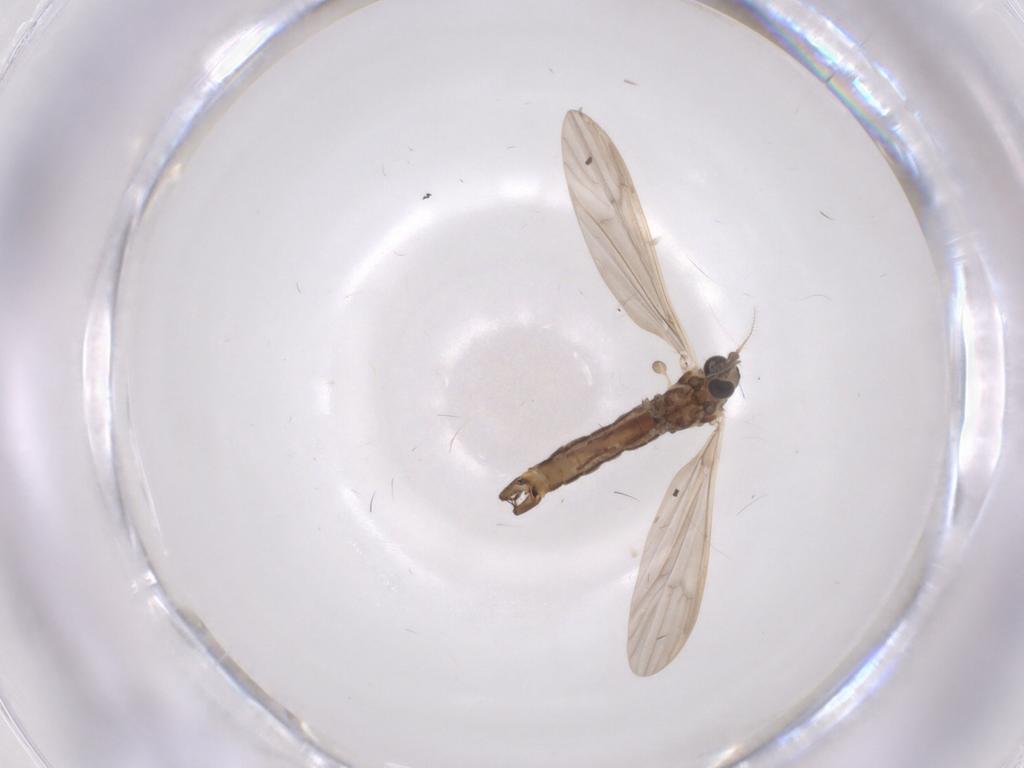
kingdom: Animalia
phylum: Arthropoda
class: Insecta
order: Diptera
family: Limoniidae
